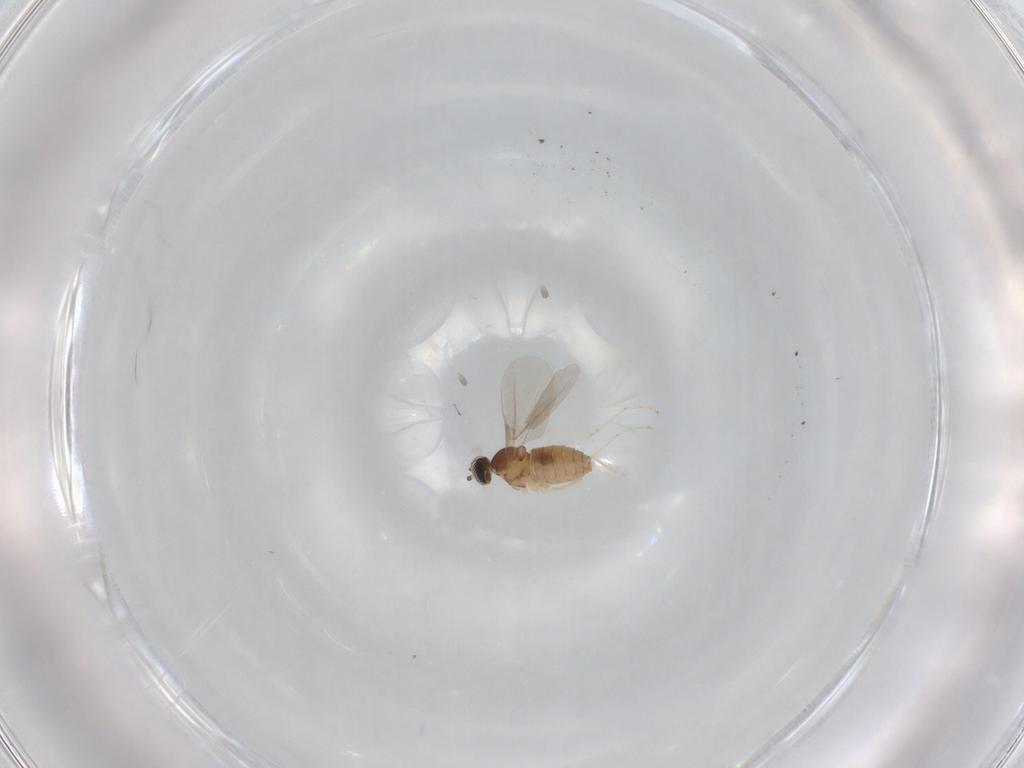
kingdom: Animalia
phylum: Arthropoda
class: Insecta
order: Diptera
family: Cecidomyiidae
